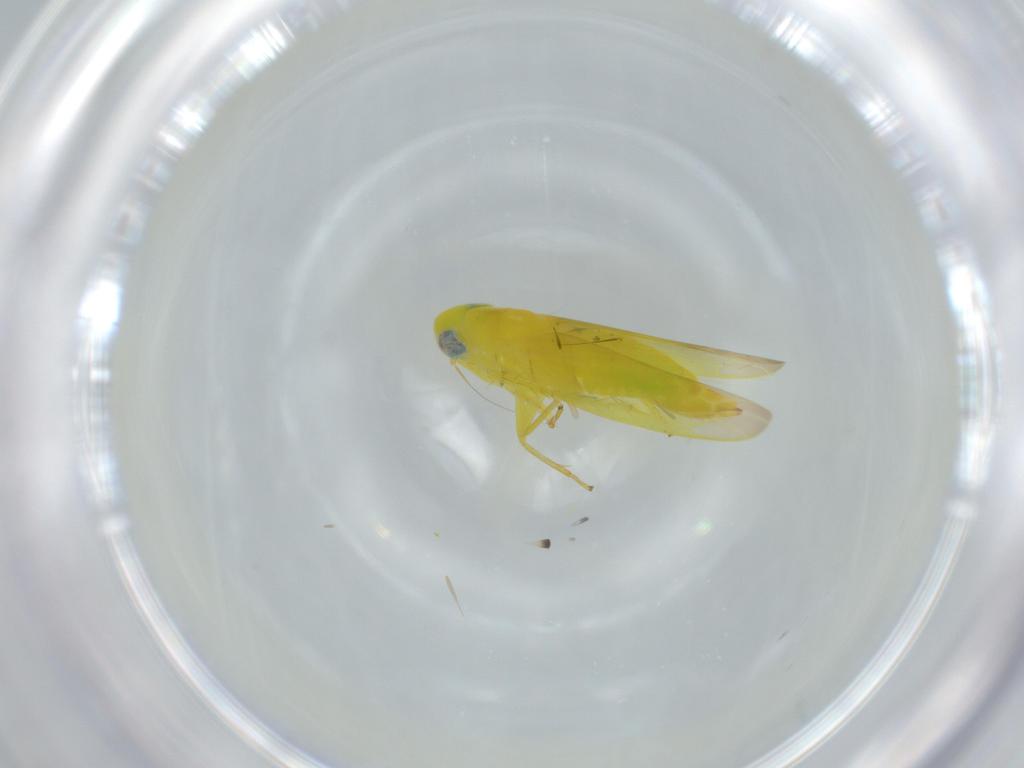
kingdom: Animalia
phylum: Arthropoda
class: Insecta
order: Hemiptera
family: Cicadellidae
